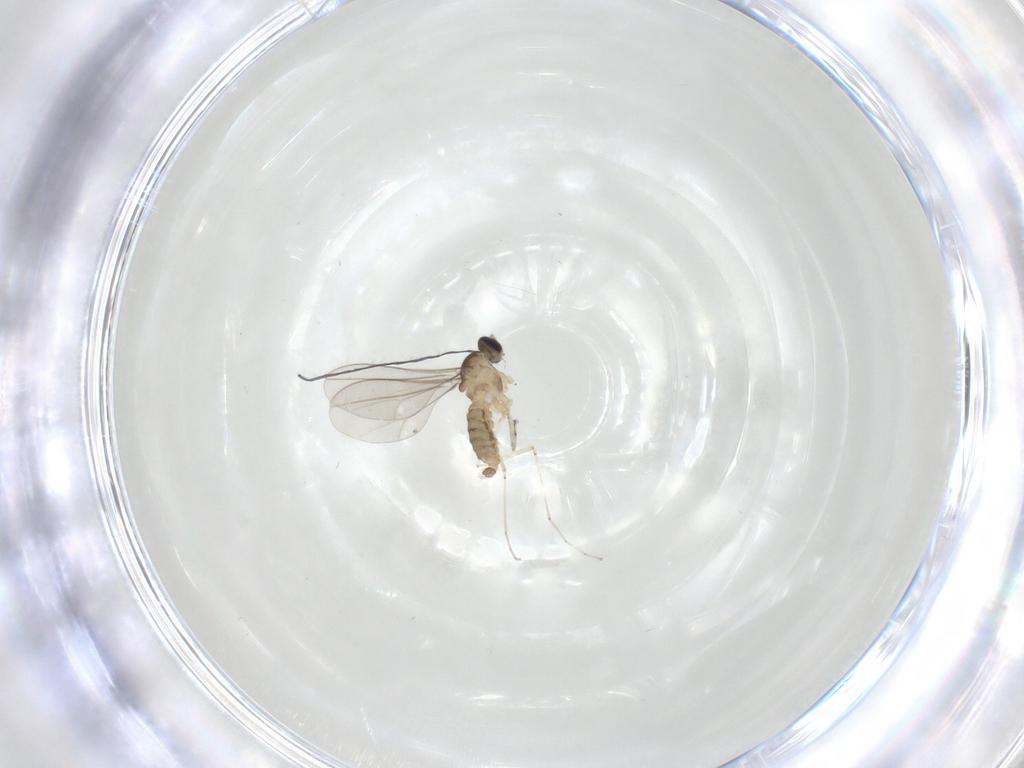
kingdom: Animalia
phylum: Arthropoda
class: Insecta
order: Diptera
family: Cecidomyiidae
